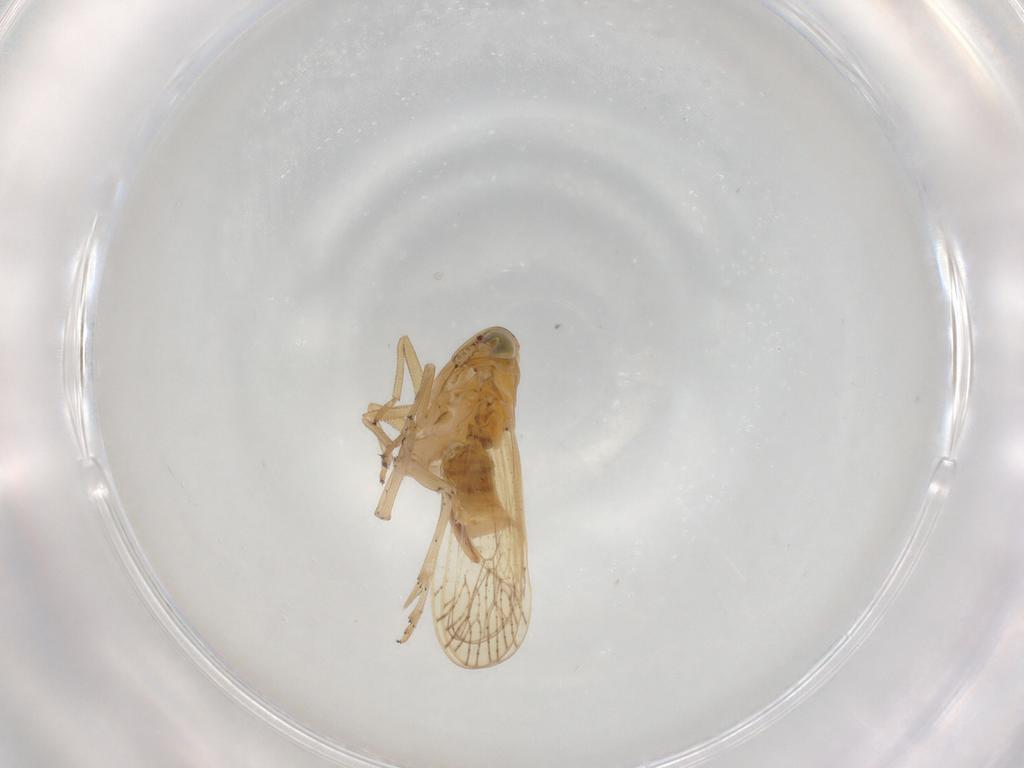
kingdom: Animalia
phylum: Arthropoda
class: Insecta
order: Hemiptera
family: Delphacidae
